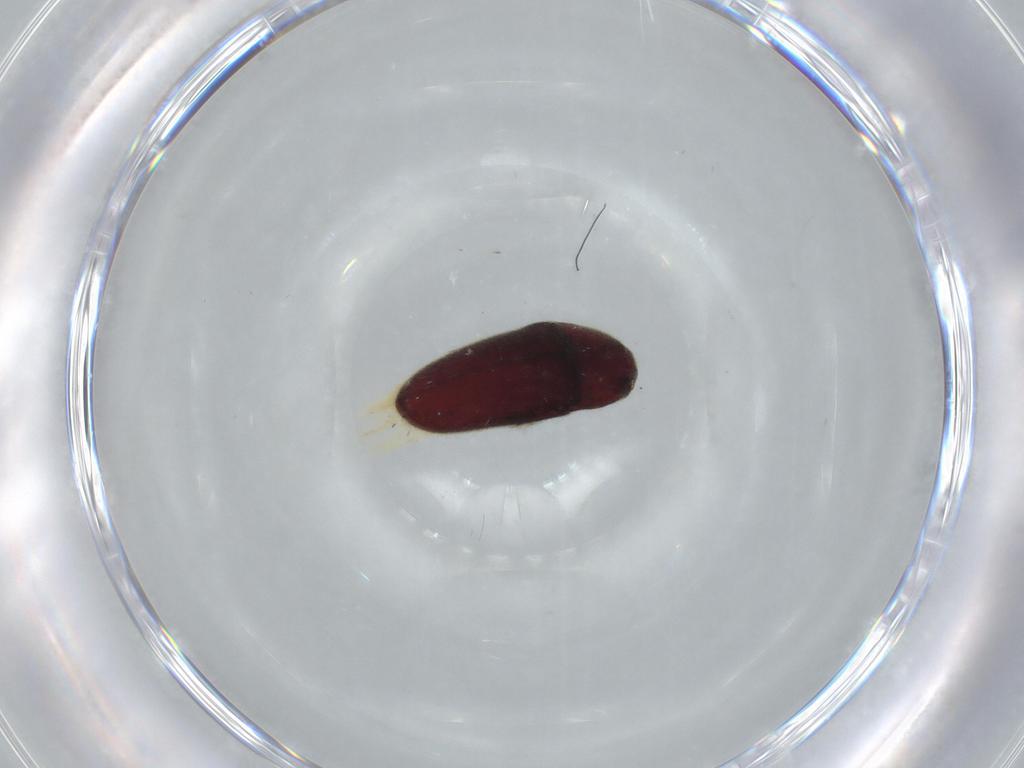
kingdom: Animalia
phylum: Arthropoda
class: Insecta
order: Coleoptera
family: Throscidae
